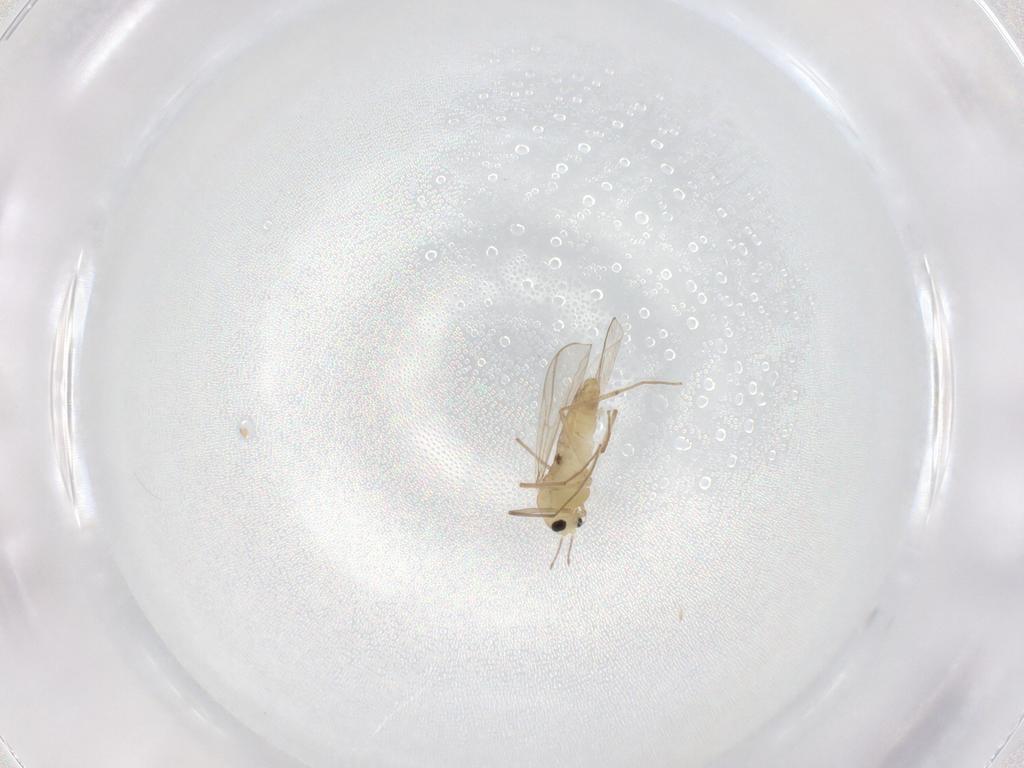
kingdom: Animalia
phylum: Arthropoda
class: Insecta
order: Diptera
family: Chironomidae
